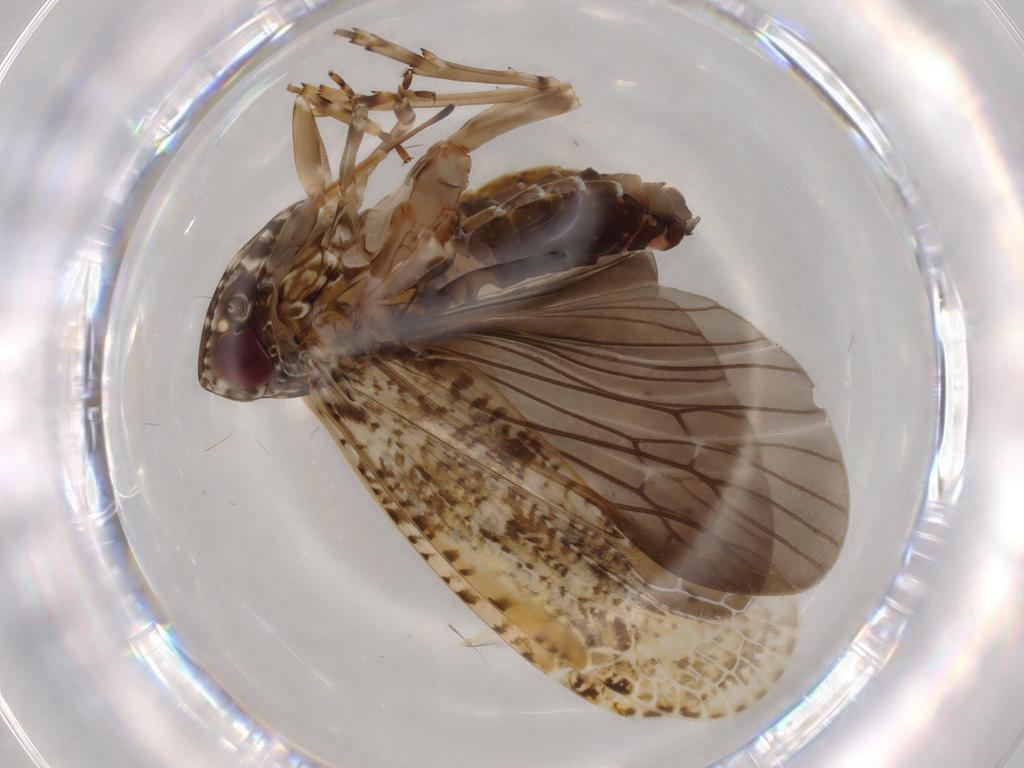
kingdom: Animalia
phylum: Arthropoda
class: Insecta
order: Hemiptera
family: Achilidae
